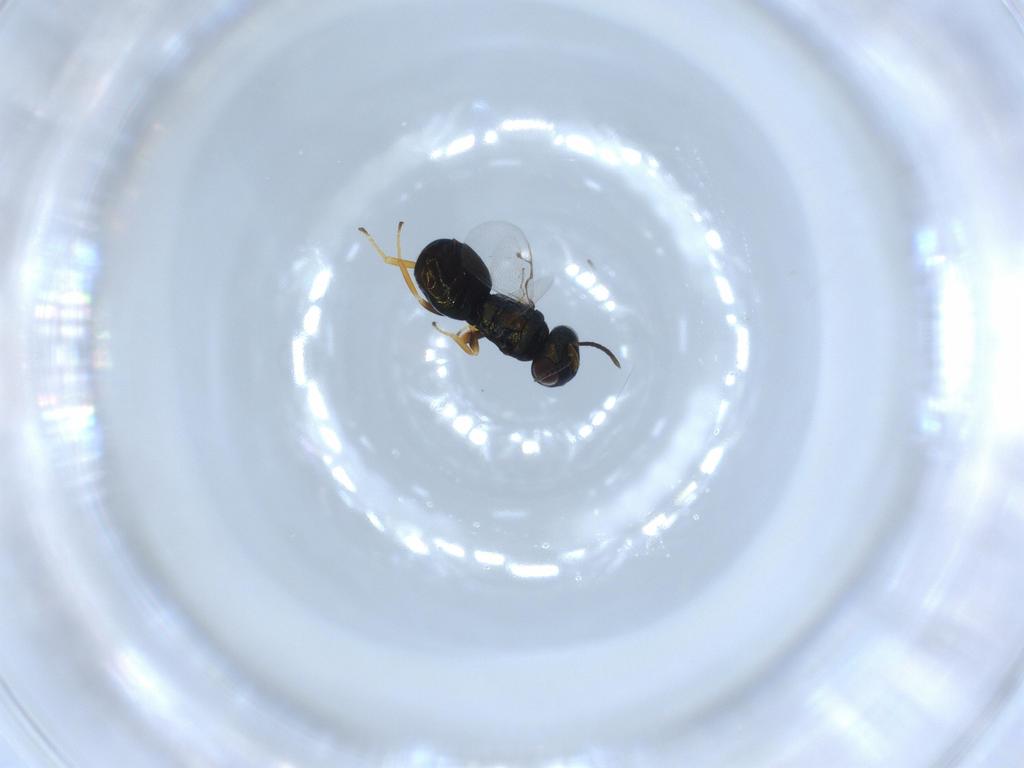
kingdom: Animalia
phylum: Arthropoda
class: Insecta
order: Hymenoptera
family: Pteromalidae
